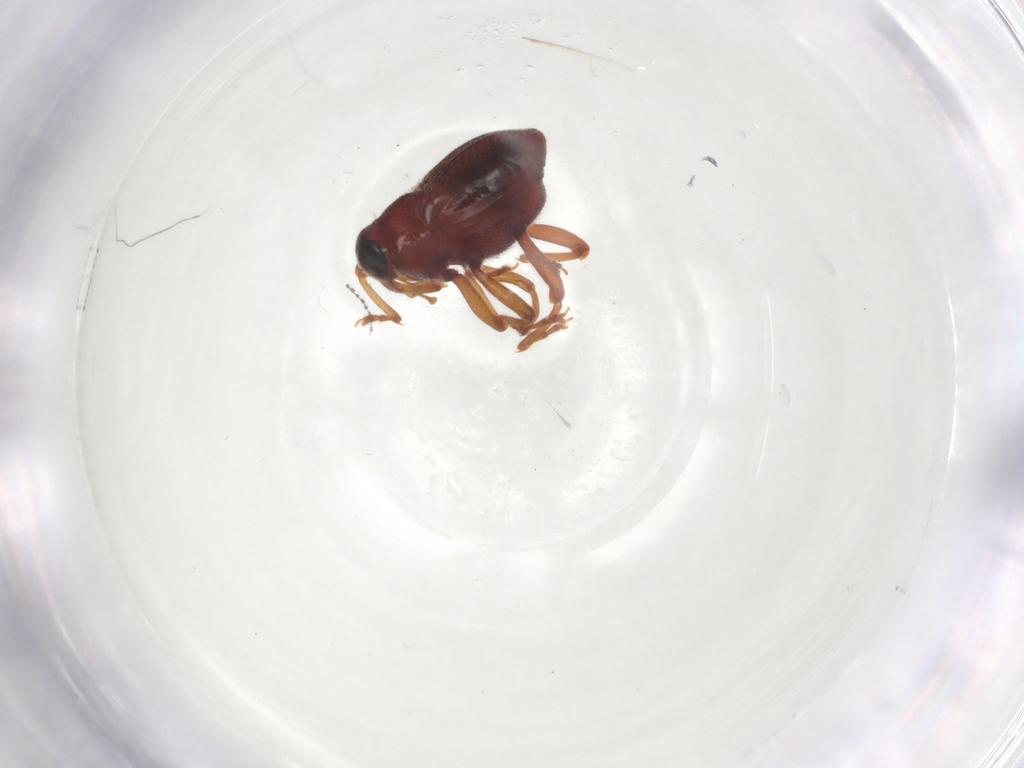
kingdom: Animalia
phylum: Arthropoda
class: Insecta
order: Coleoptera
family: Curculionidae
